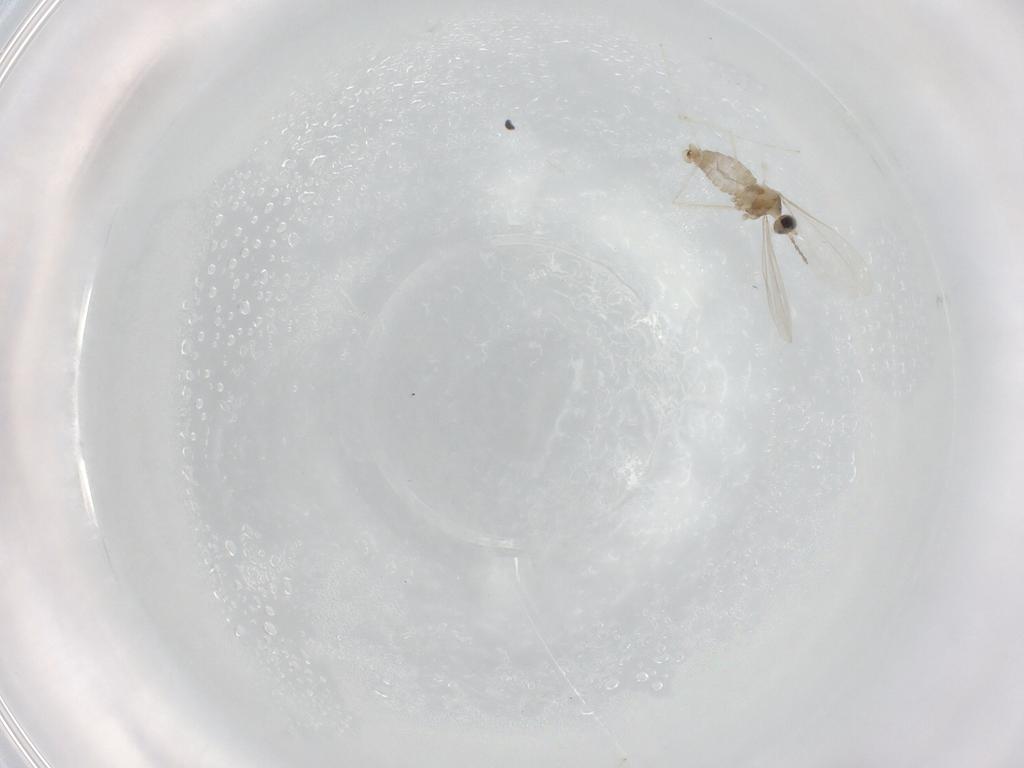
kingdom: Animalia
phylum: Arthropoda
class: Insecta
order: Diptera
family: Cecidomyiidae
